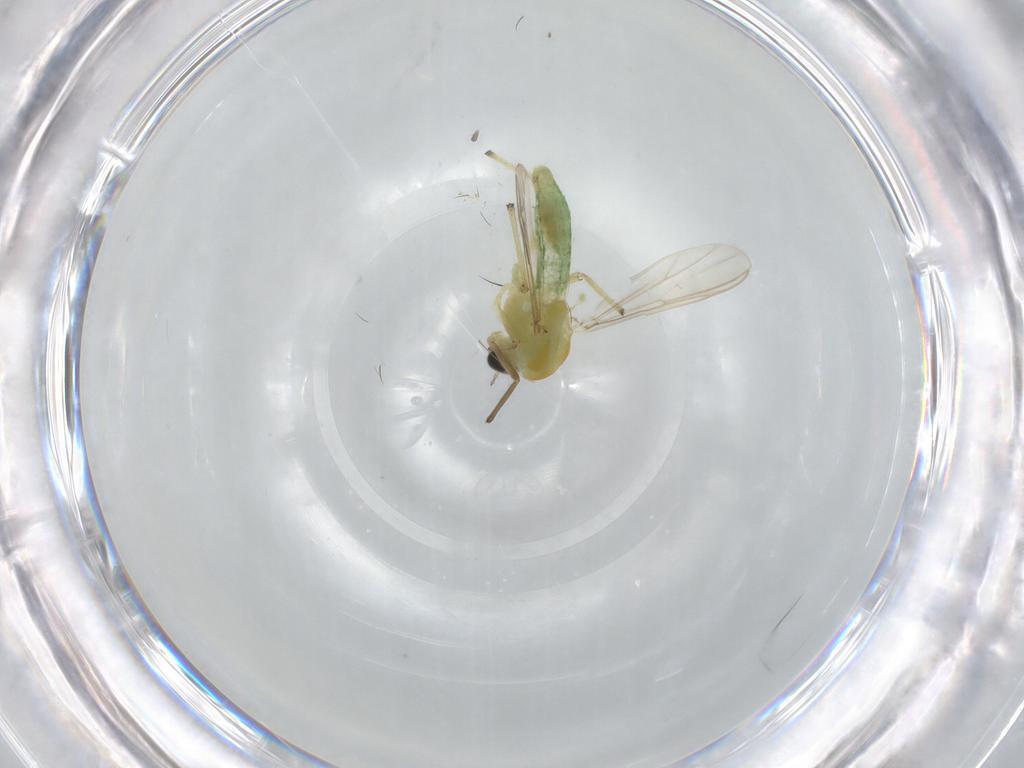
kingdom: Animalia
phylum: Arthropoda
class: Insecta
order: Diptera
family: Chironomidae
